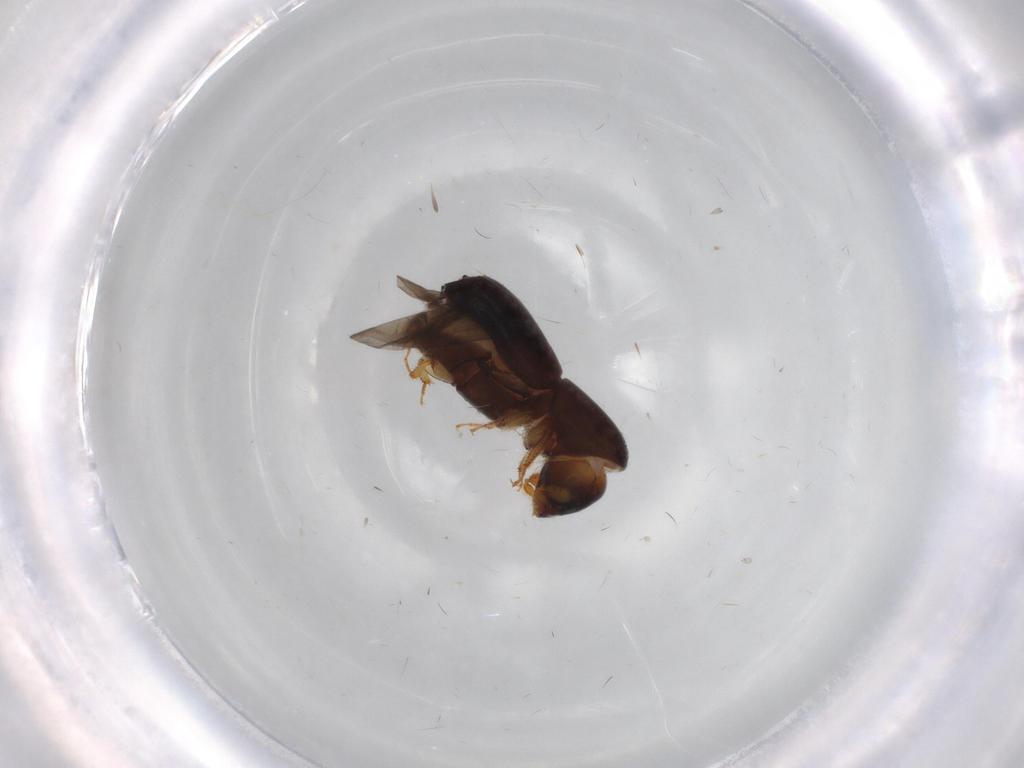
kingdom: Animalia
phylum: Arthropoda
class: Insecta
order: Coleoptera
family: Curculionidae
